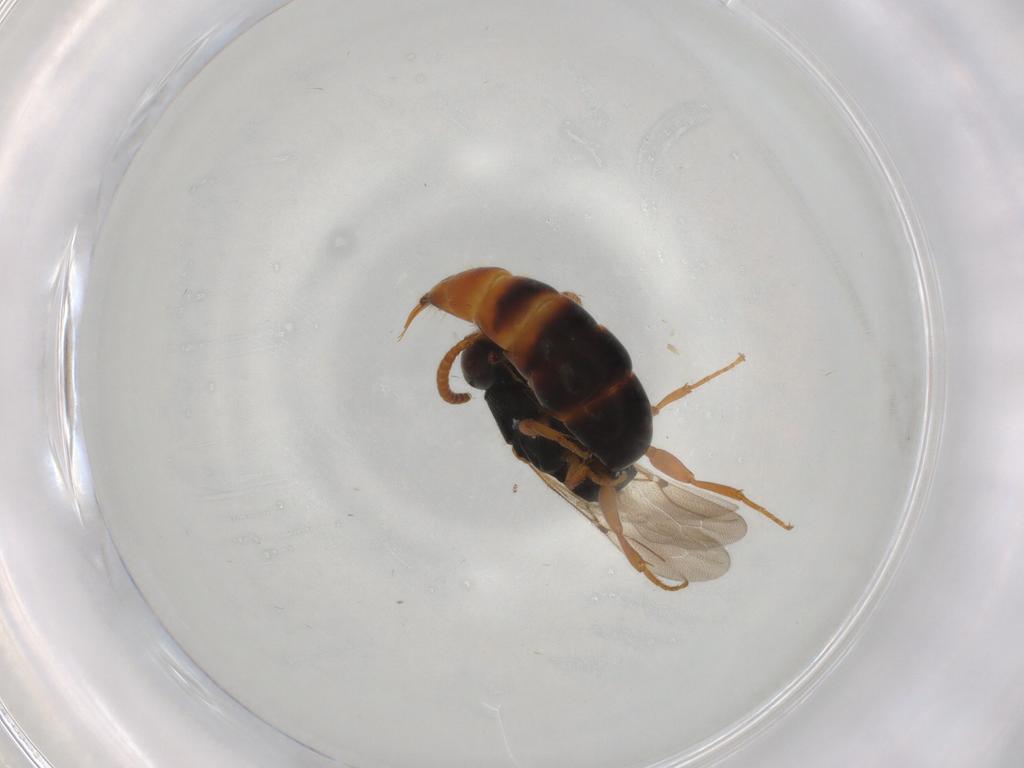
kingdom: Animalia
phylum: Arthropoda
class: Insecta
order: Hymenoptera
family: Bethylidae
